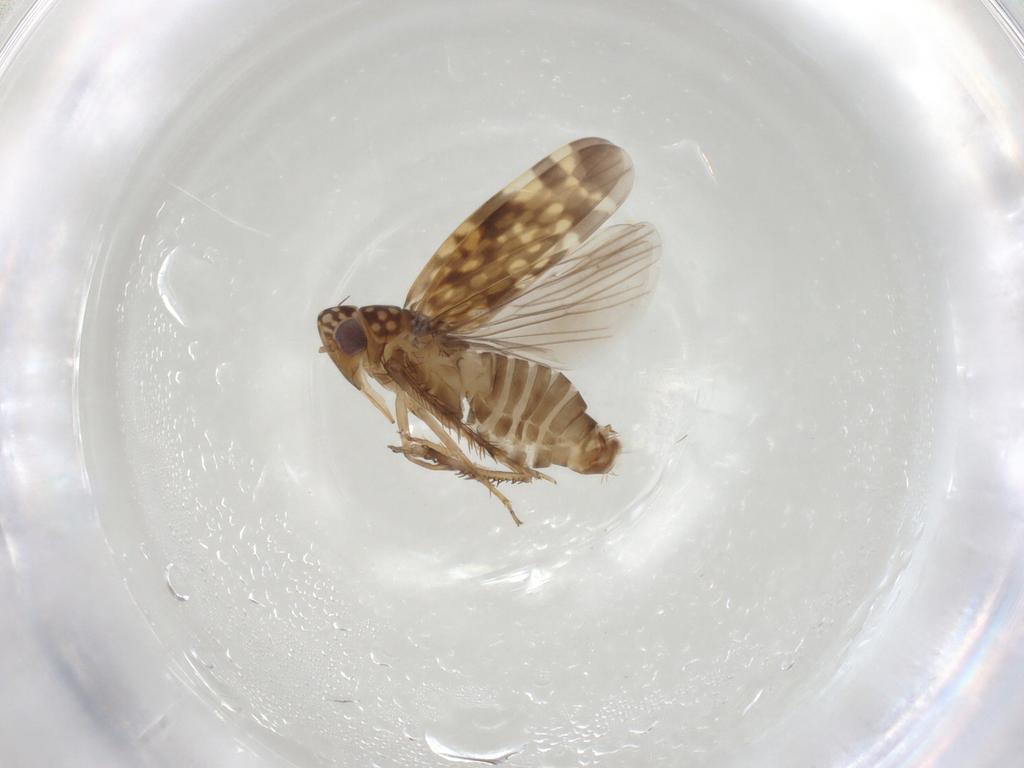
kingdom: Animalia
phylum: Arthropoda
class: Insecta
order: Hemiptera
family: Cicadellidae
